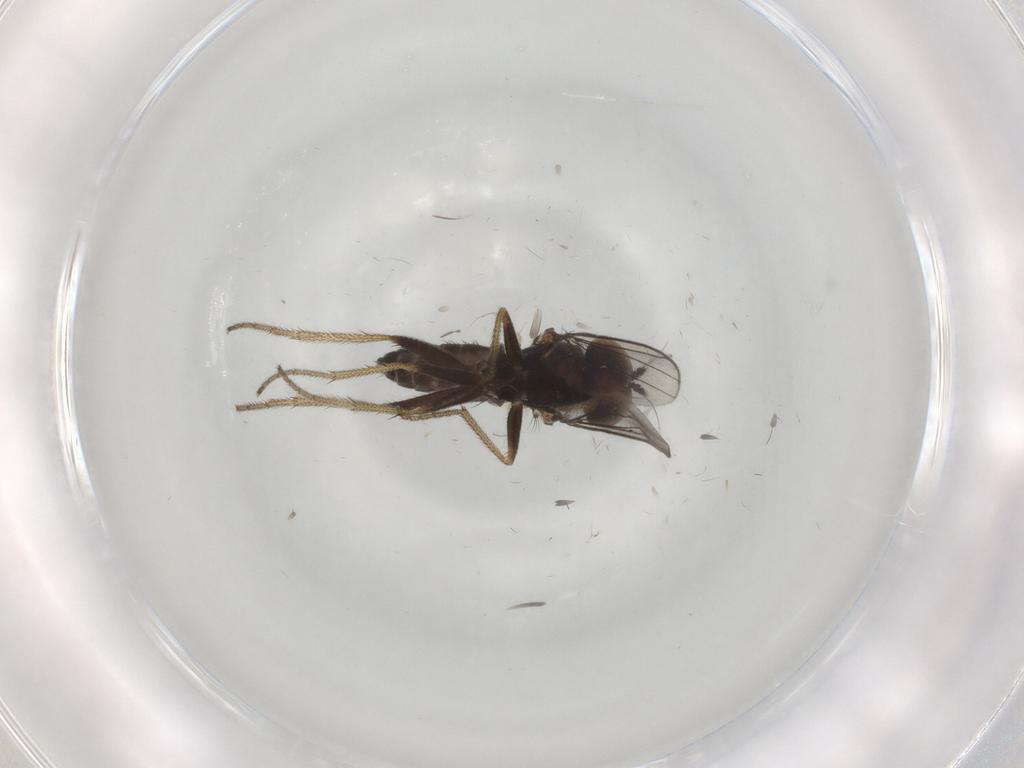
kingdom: Animalia
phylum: Arthropoda
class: Insecta
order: Diptera
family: Chironomidae
